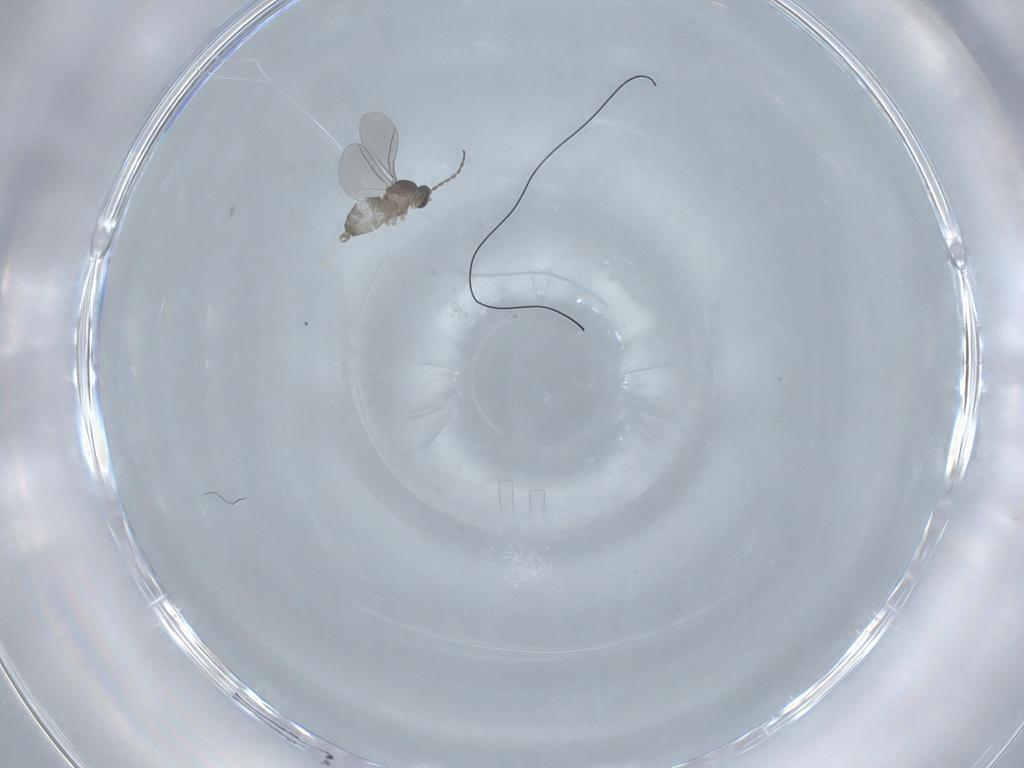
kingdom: Animalia
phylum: Arthropoda
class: Insecta
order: Diptera
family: Cecidomyiidae
